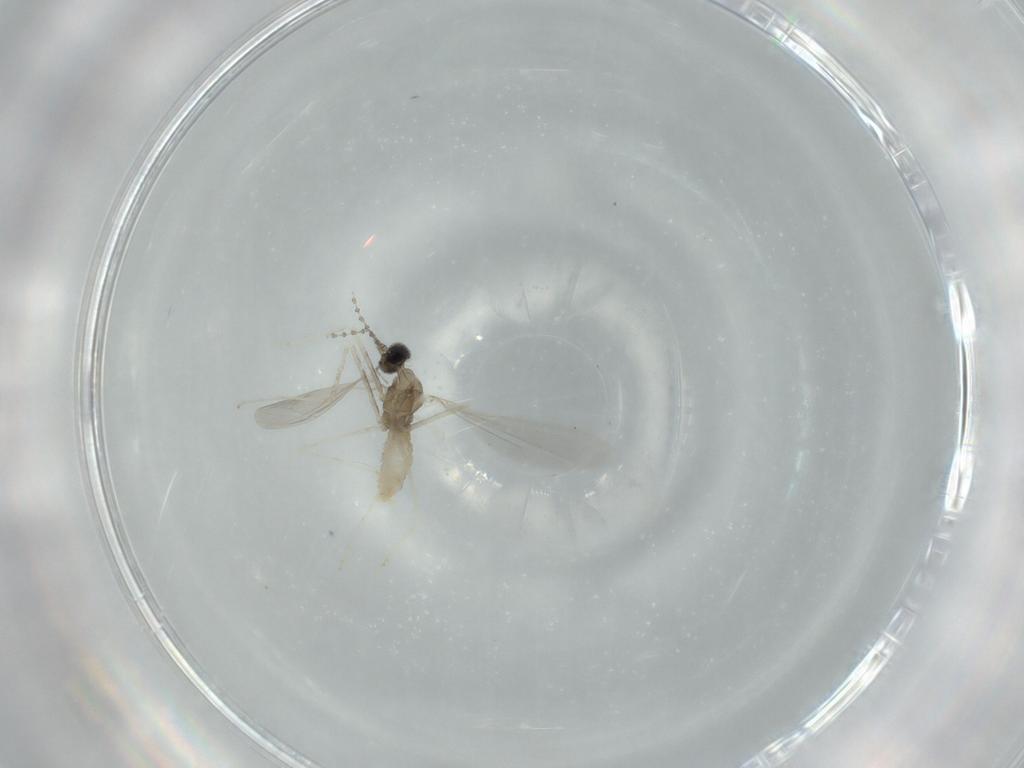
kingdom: Animalia
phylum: Arthropoda
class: Insecta
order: Diptera
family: Cecidomyiidae
